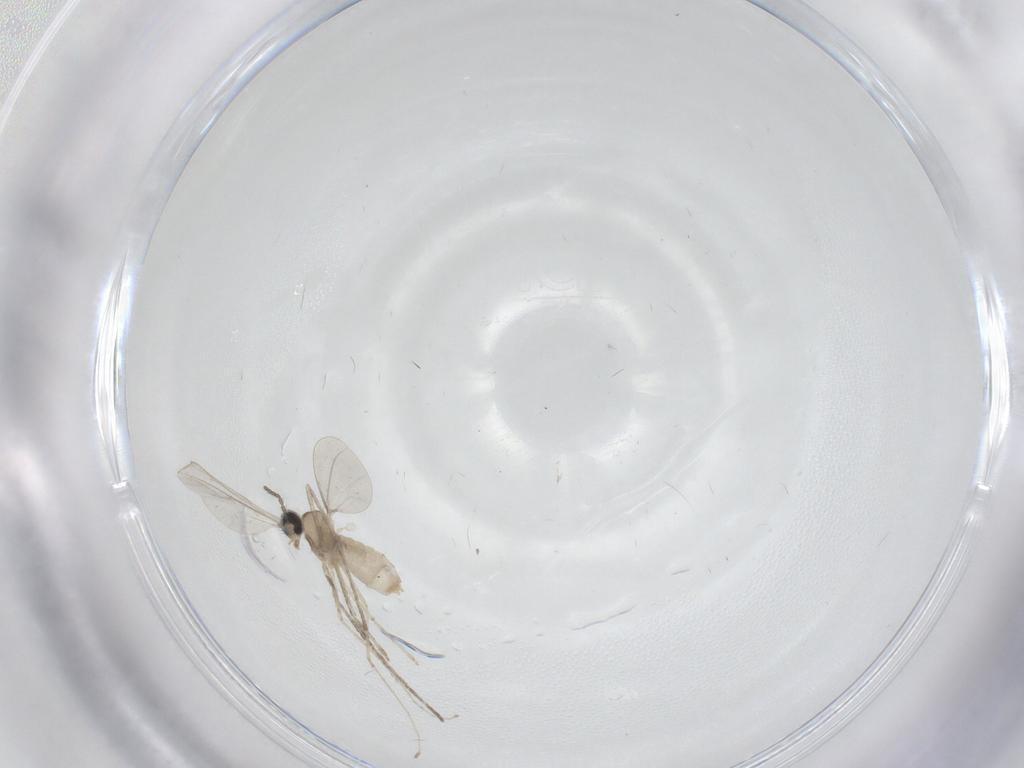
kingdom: Animalia
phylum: Arthropoda
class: Insecta
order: Diptera
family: Cecidomyiidae
